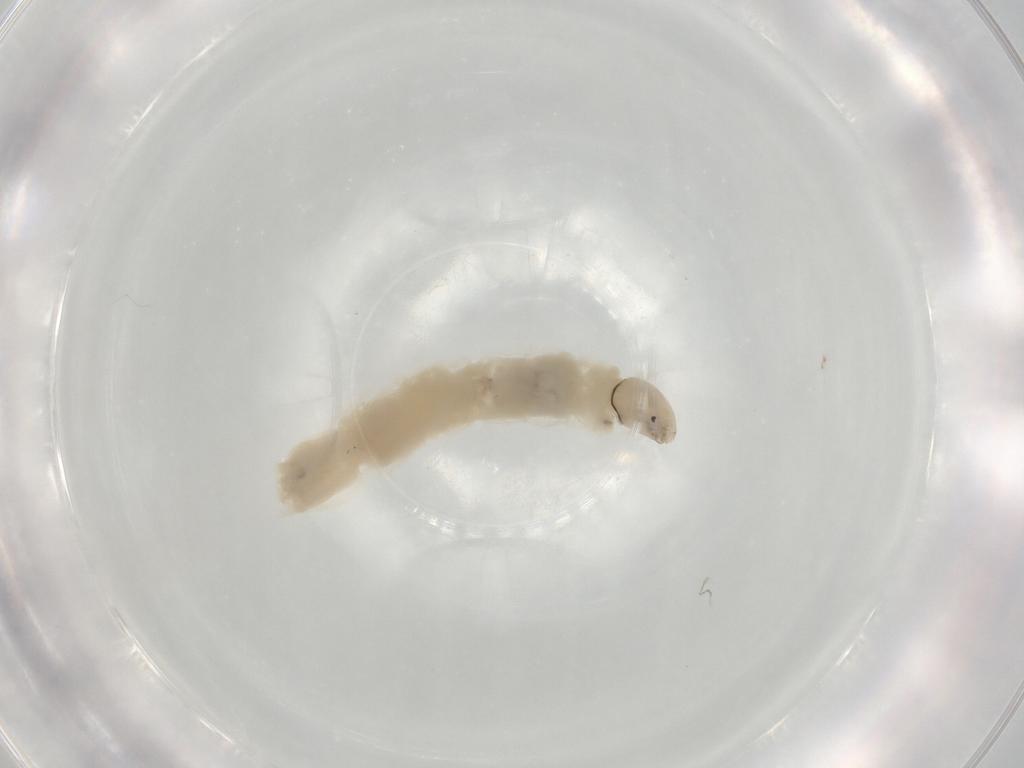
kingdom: Animalia
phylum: Arthropoda
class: Insecta
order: Diptera
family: Chironomidae
